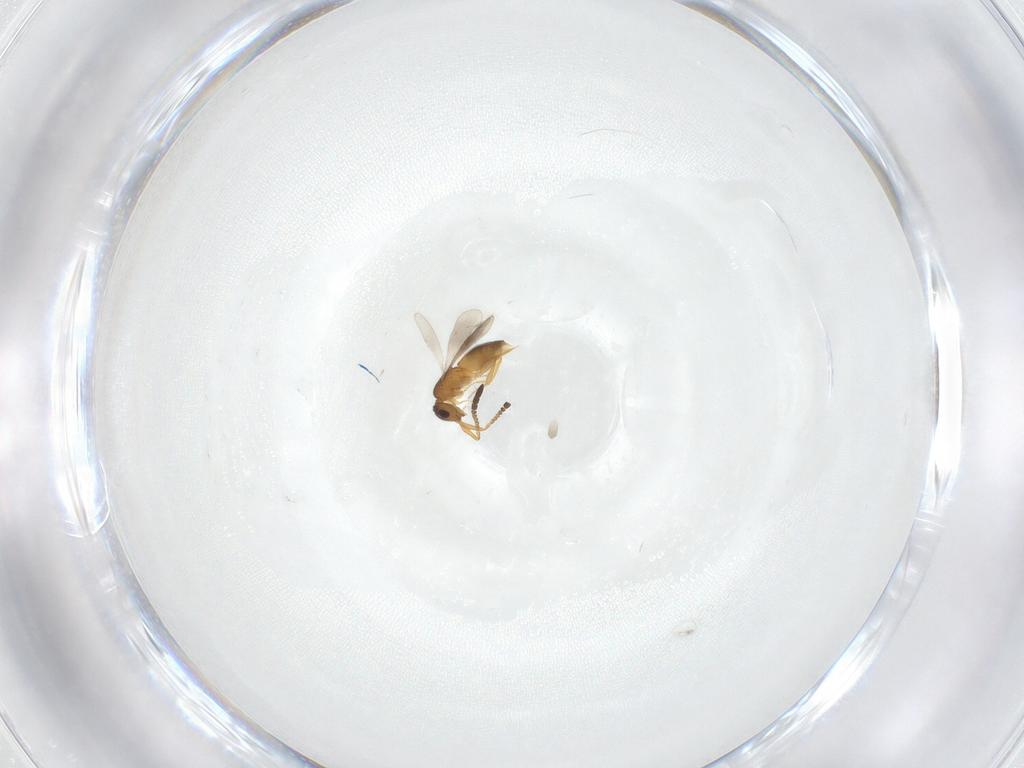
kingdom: Animalia
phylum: Arthropoda
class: Insecta
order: Hymenoptera
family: Ceraphronidae
